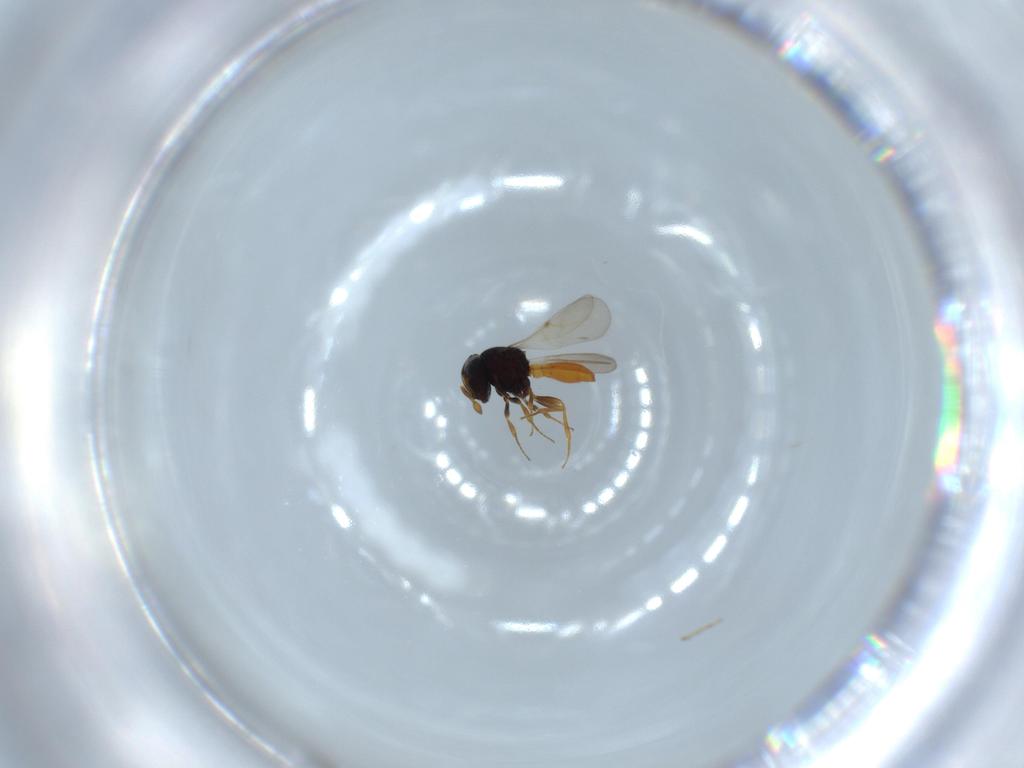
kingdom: Animalia
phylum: Arthropoda
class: Insecta
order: Hymenoptera
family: Scelionidae
